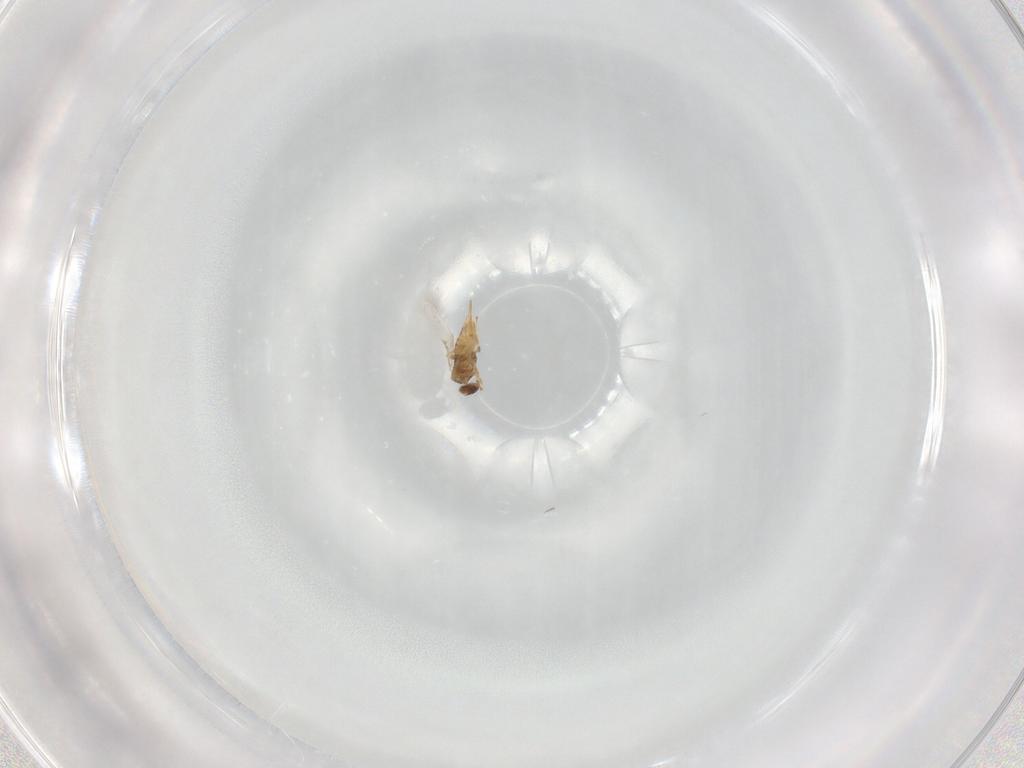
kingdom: Animalia
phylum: Arthropoda
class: Insecta
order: Hymenoptera
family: Ichneumonidae
